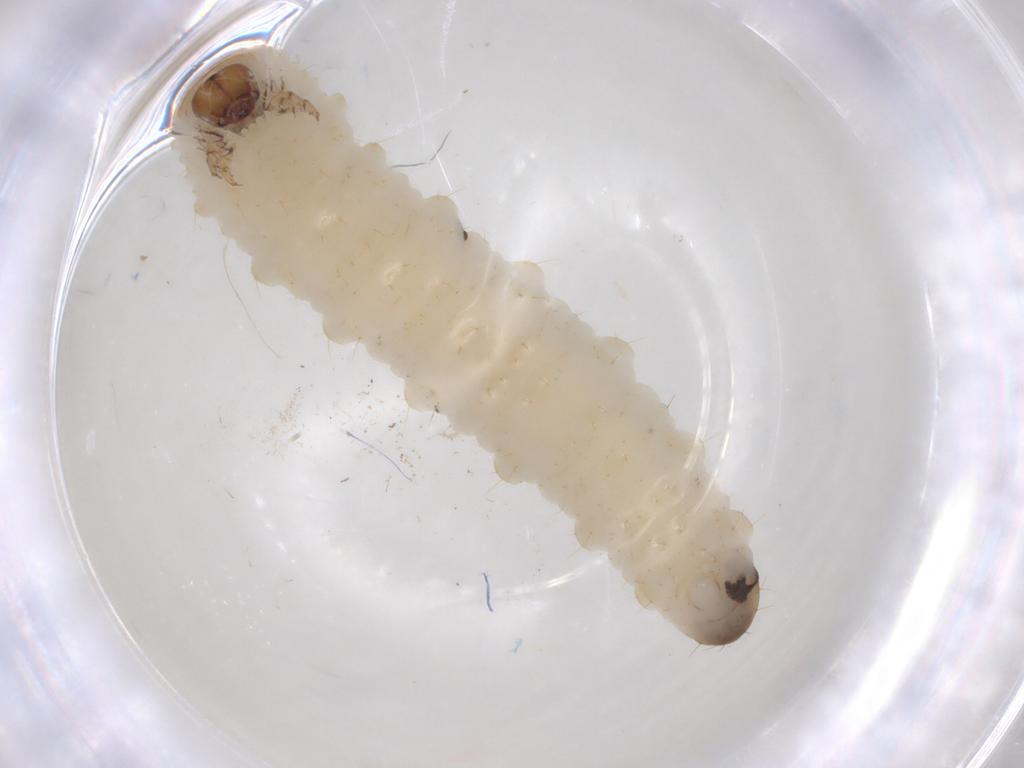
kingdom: Animalia
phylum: Arthropoda
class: Insecta
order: Coleoptera
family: Chrysomelidae
